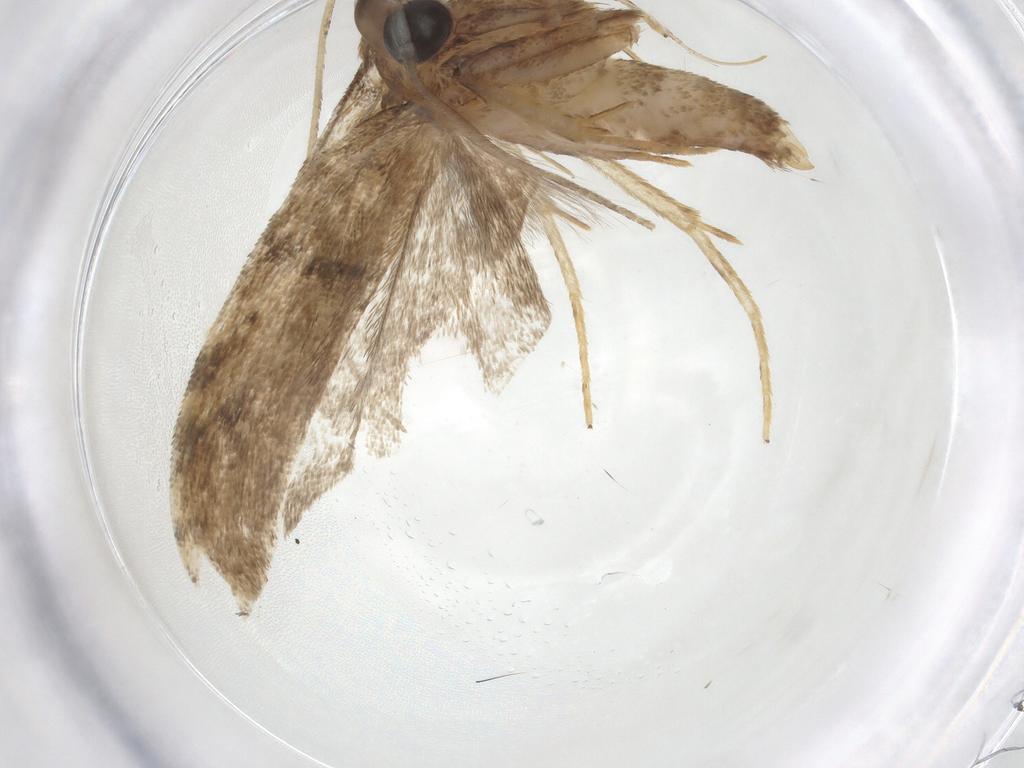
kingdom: Animalia
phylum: Arthropoda
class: Insecta
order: Lepidoptera
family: Autostichidae
